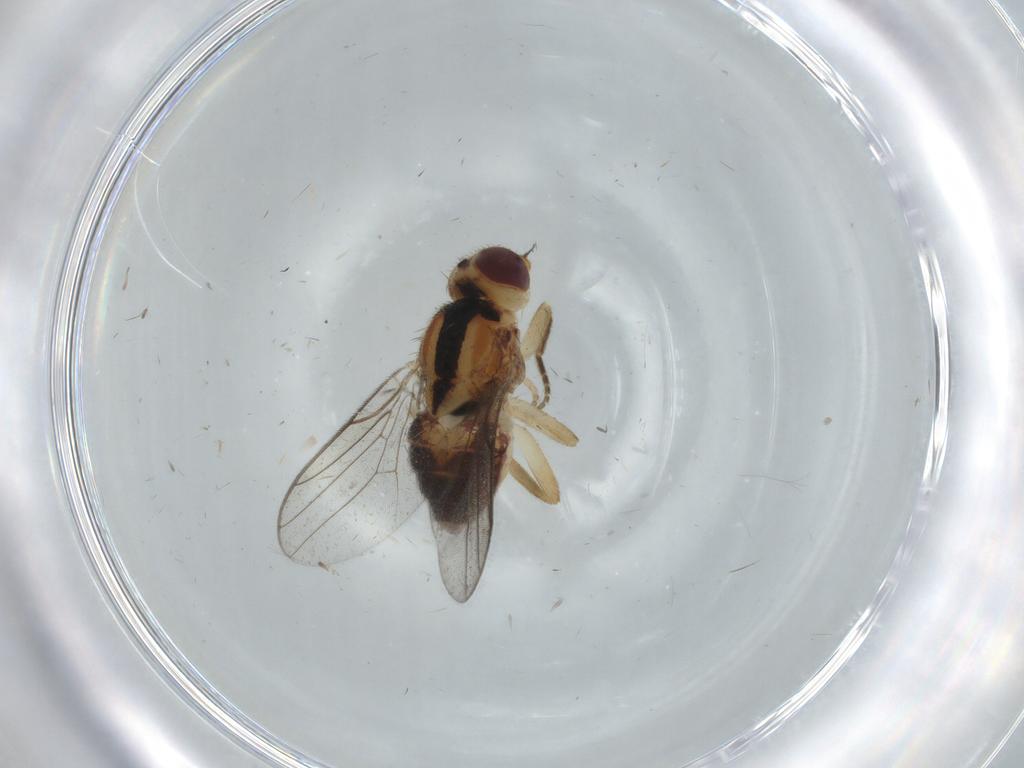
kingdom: Animalia
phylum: Arthropoda
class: Insecta
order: Diptera
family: Chloropidae
